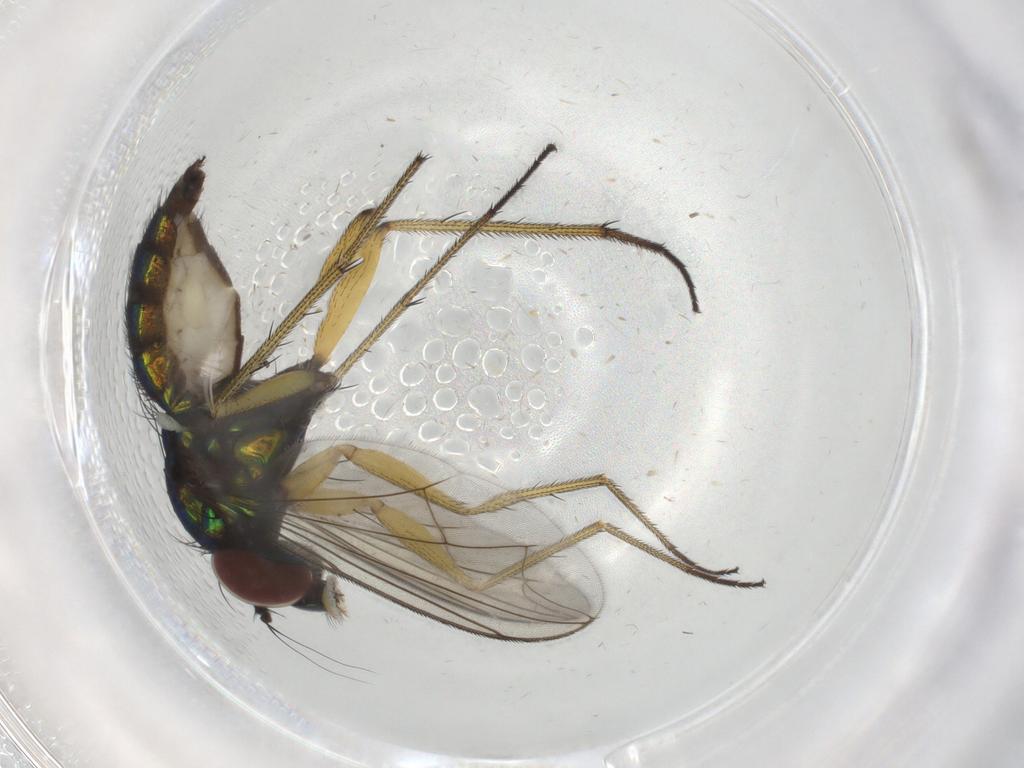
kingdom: Animalia
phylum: Arthropoda
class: Insecta
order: Diptera
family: Dolichopodidae
